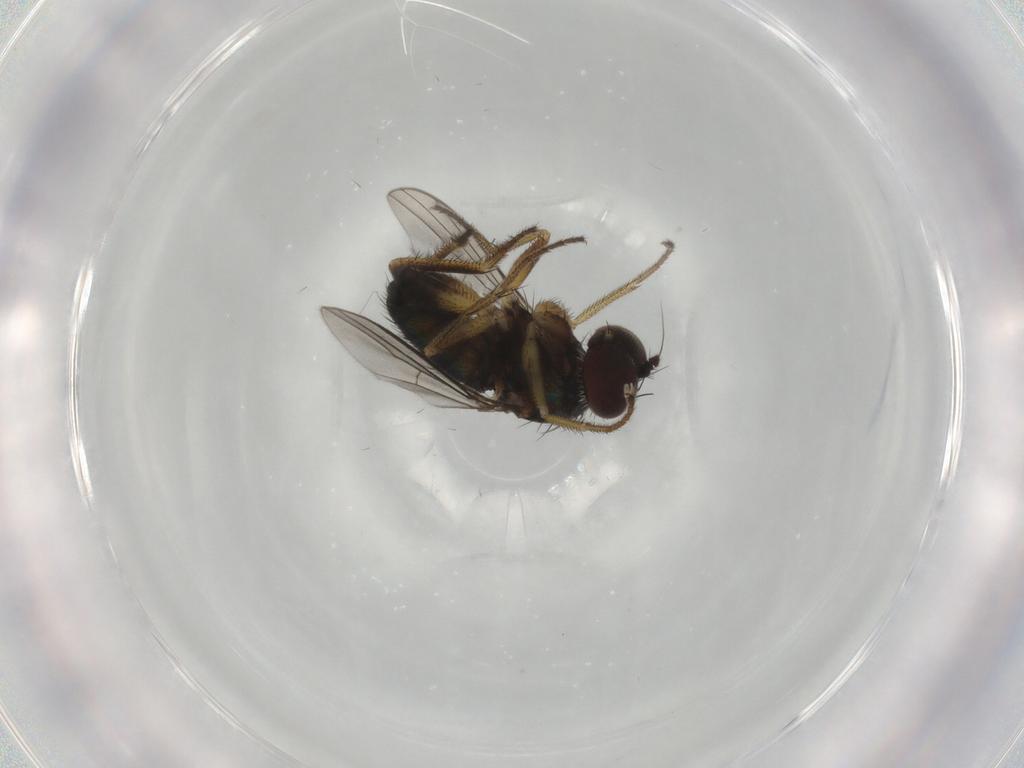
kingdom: Animalia
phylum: Arthropoda
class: Insecta
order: Diptera
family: Dolichopodidae
